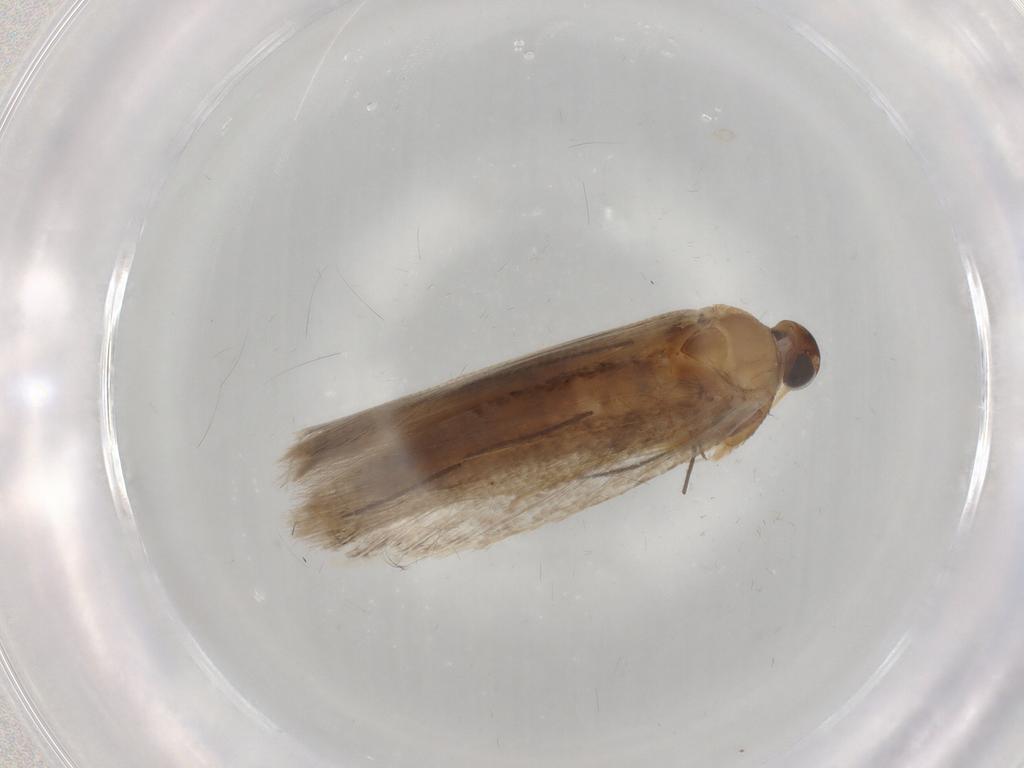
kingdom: Animalia
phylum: Arthropoda
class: Insecta
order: Lepidoptera
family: Gelechiidae
